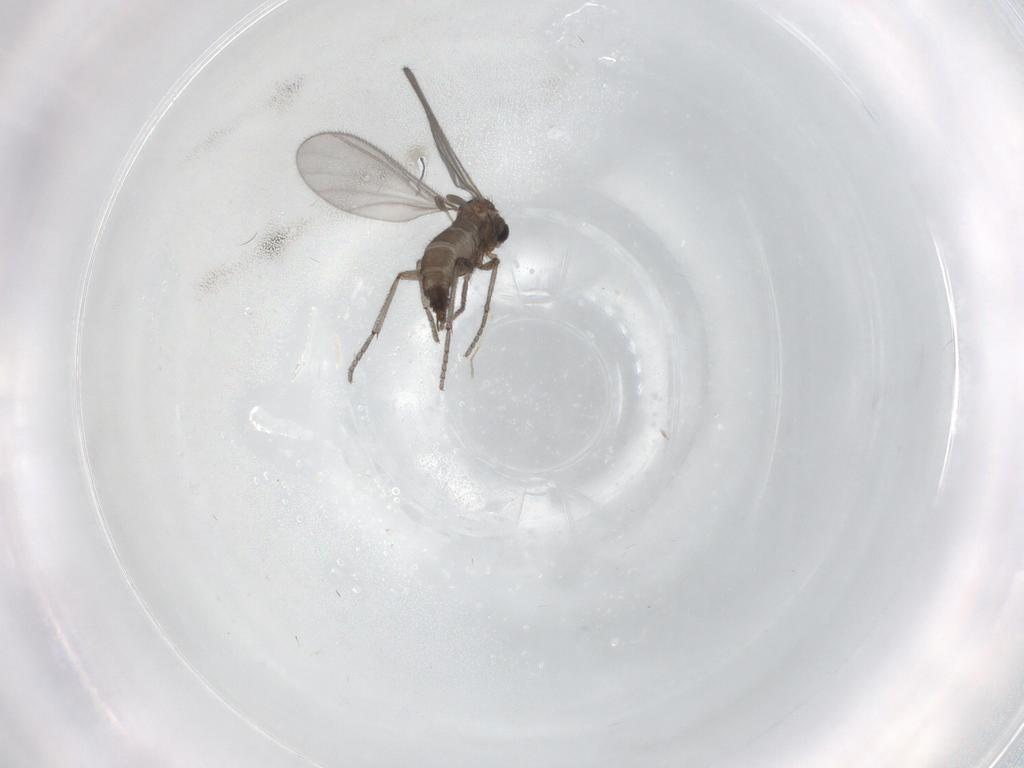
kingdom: Animalia
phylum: Arthropoda
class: Insecta
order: Diptera
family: Sciaridae
